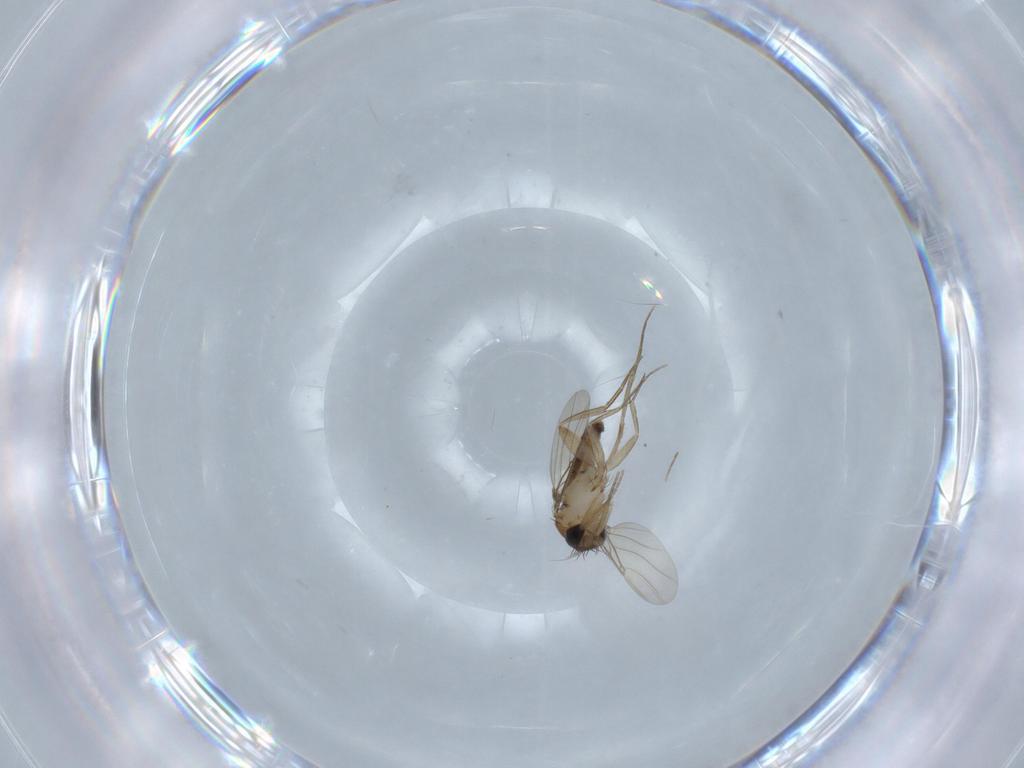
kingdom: Animalia
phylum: Arthropoda
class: Insecta
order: Diptera
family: Phoridae
